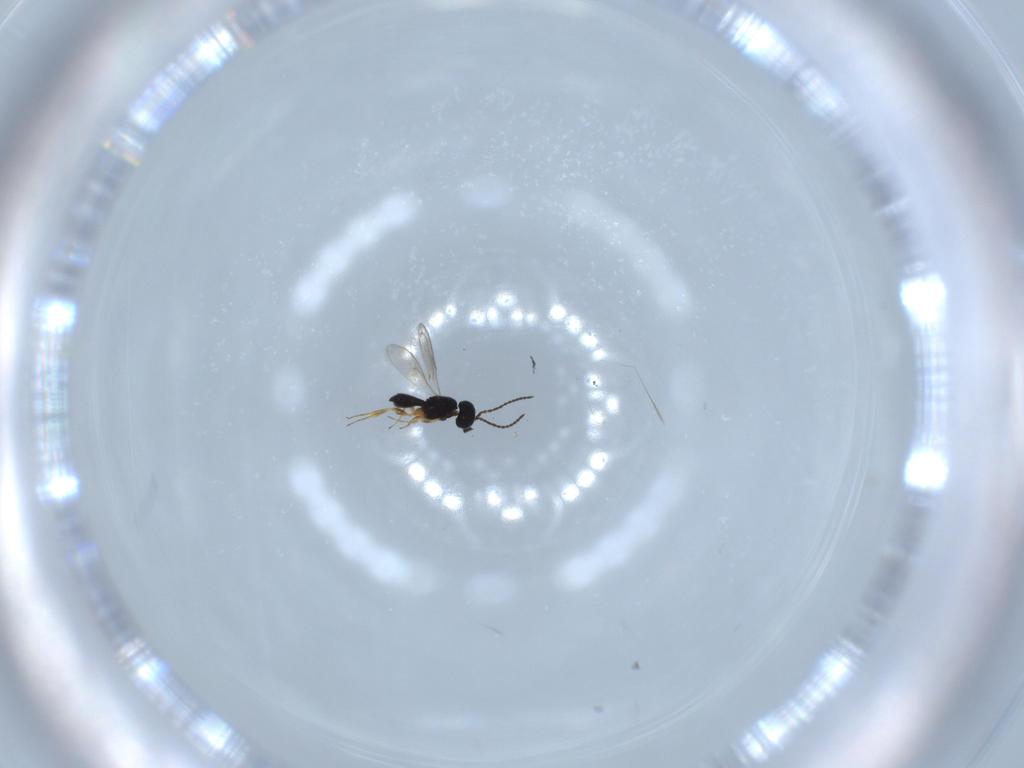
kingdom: Animalia
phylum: Arthropoda
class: Insecta
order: Hymenoptera
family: Scelionidae
